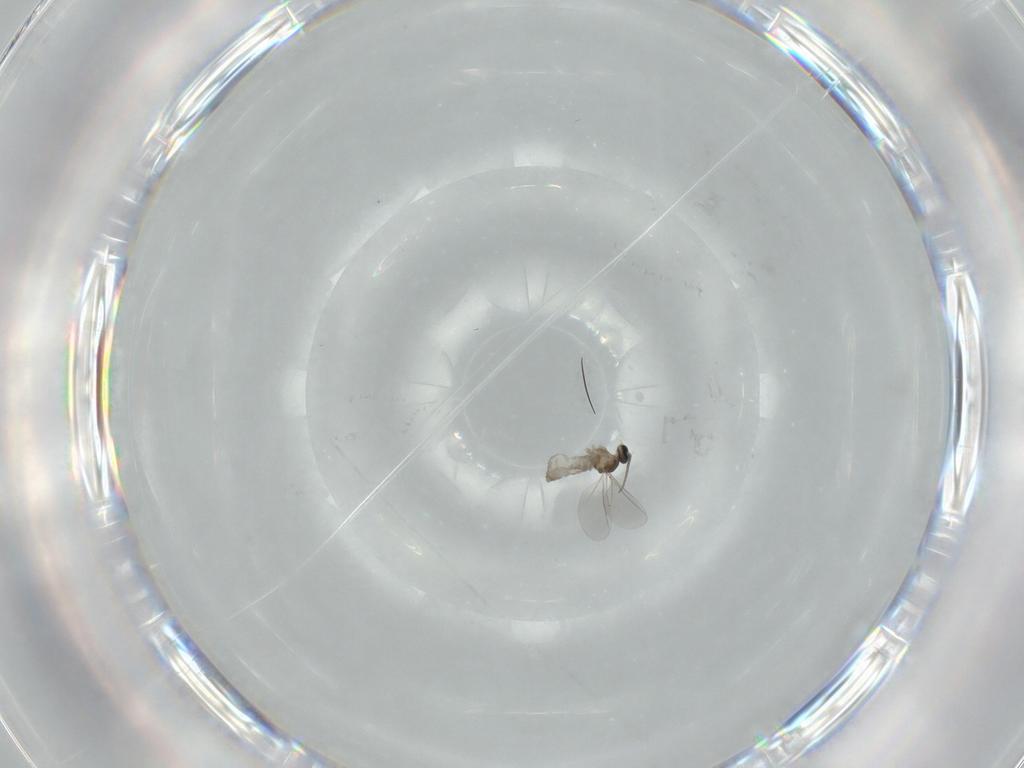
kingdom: Animalia
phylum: Arthropoda
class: Insecta
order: Diptera
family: Cecidomyiidae
